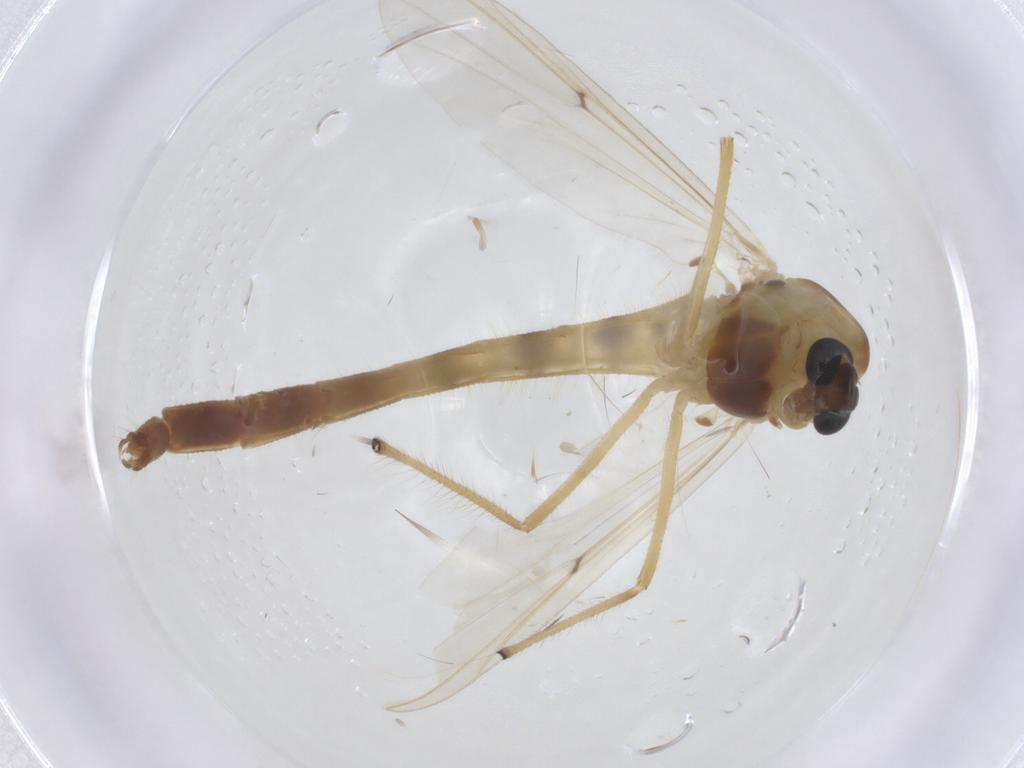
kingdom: Animalia
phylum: Arthropoda
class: Insecta
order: Diptera
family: Chironomidae
